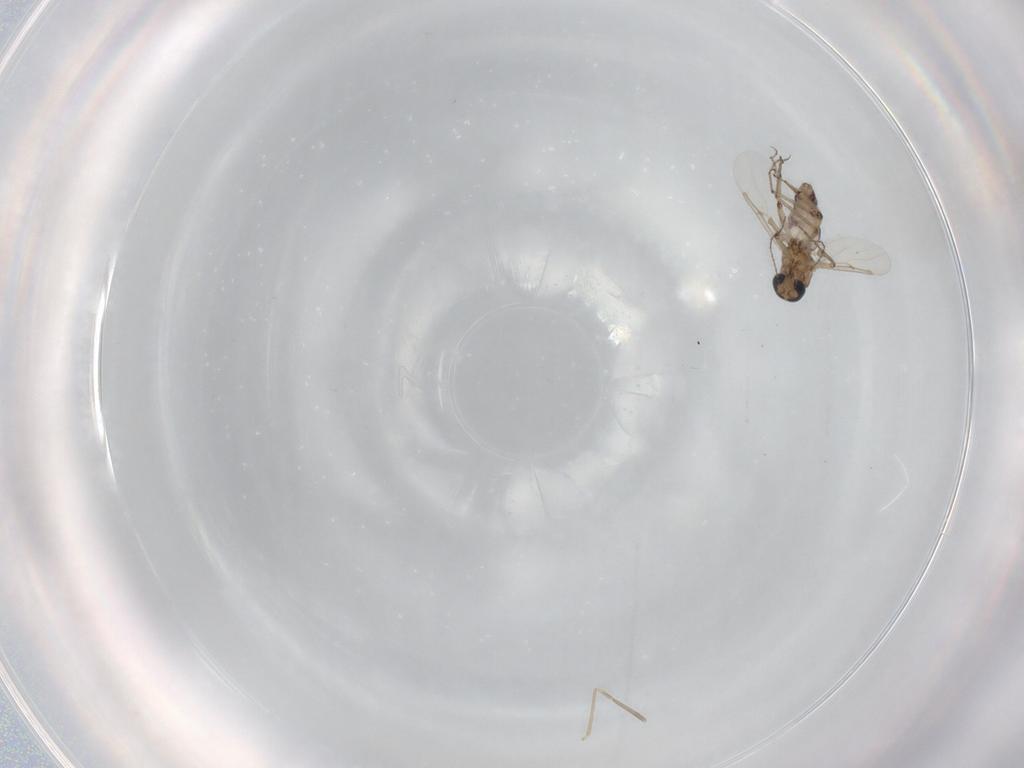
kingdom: Animalia
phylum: Arthropoda
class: Insecta
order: Diptera
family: Ceratopogonidae
